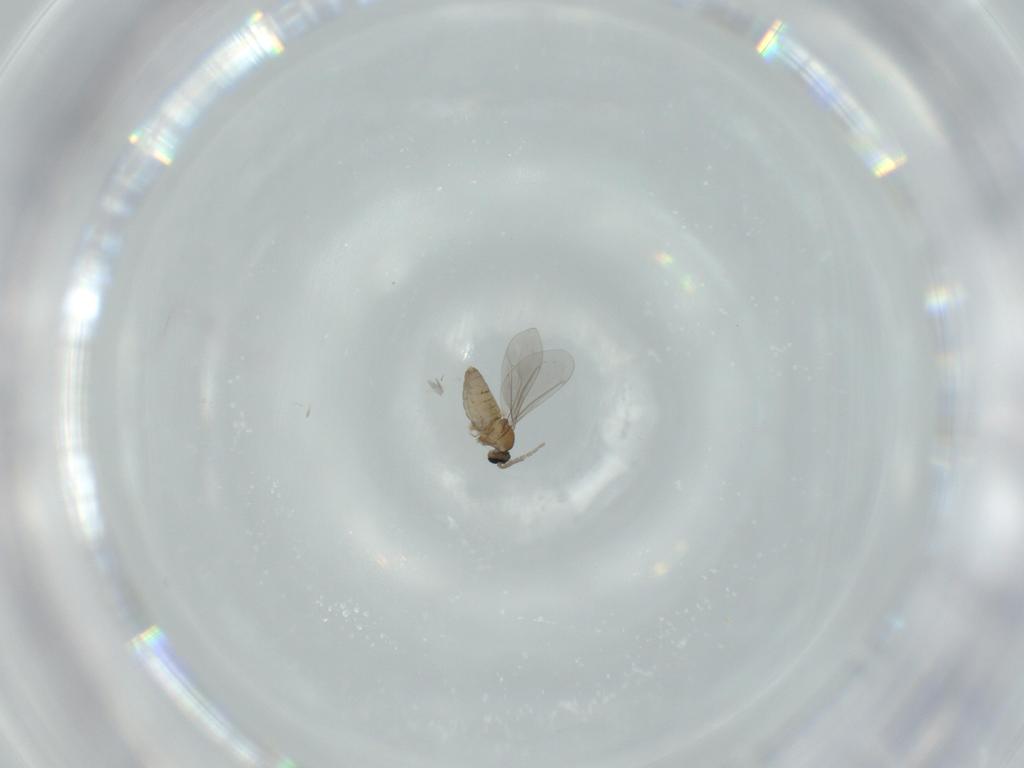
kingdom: Animalia
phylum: Arthropoda
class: Insecta
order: Diptera
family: Cecidomyiidae
